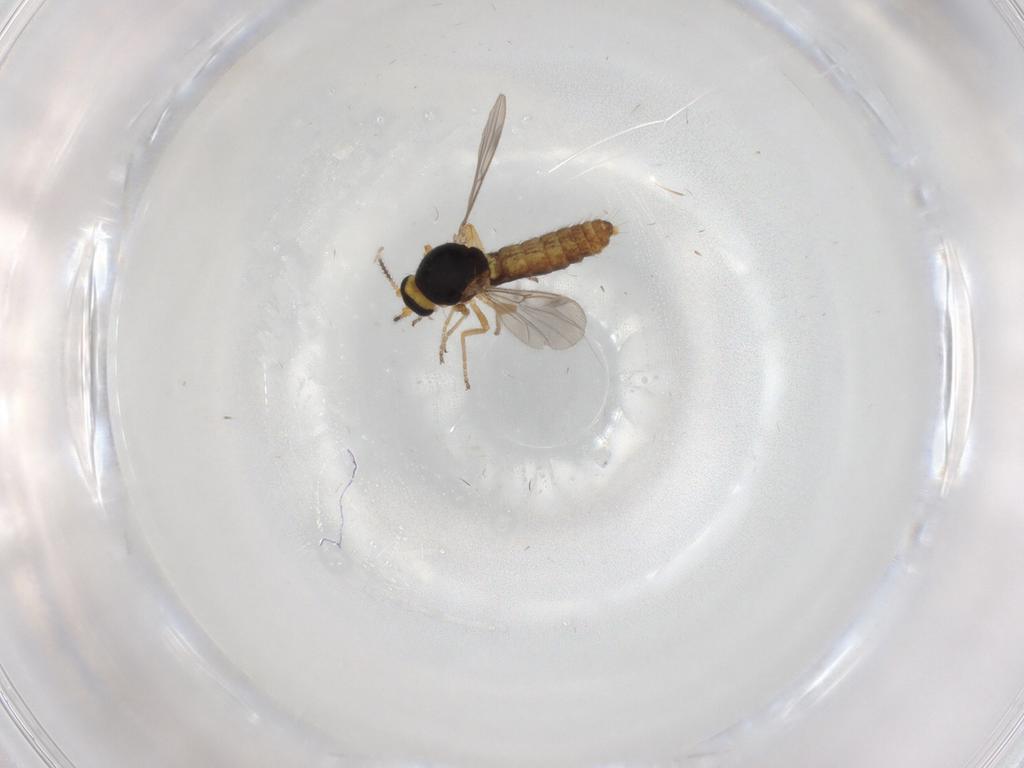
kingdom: Animalia
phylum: Arthropoda
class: Insecta
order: Diptera
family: Ceratopogonidae
